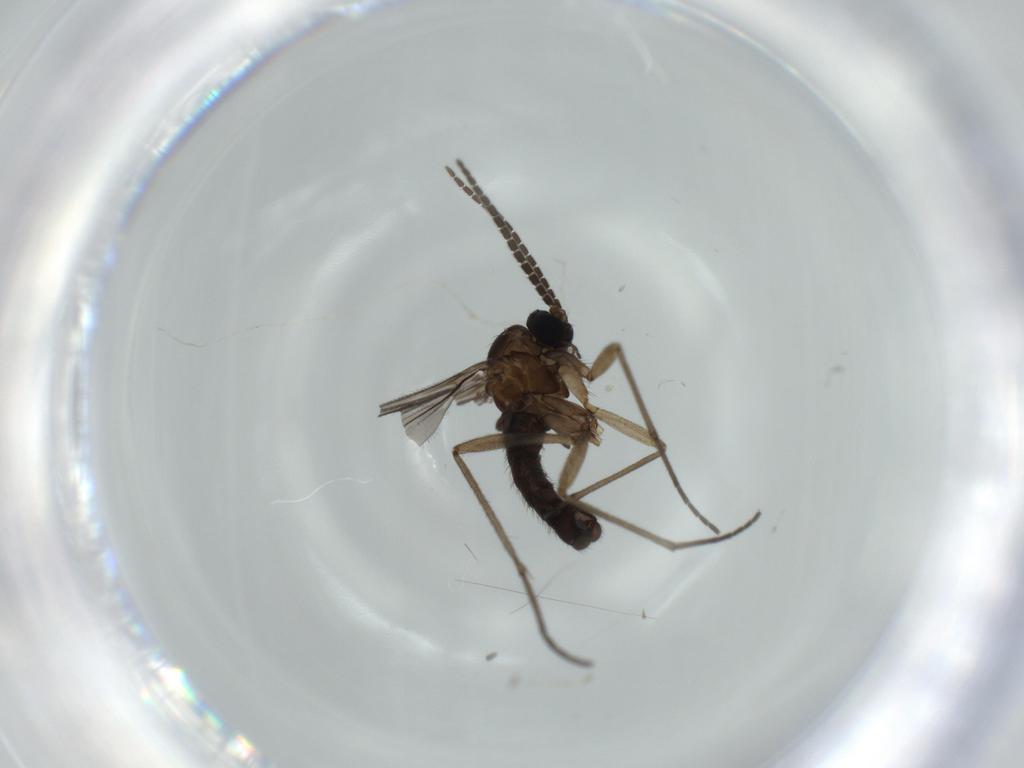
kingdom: Animalia
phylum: Arthropoda
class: Insecta
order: Diptera
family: Sciaridae
